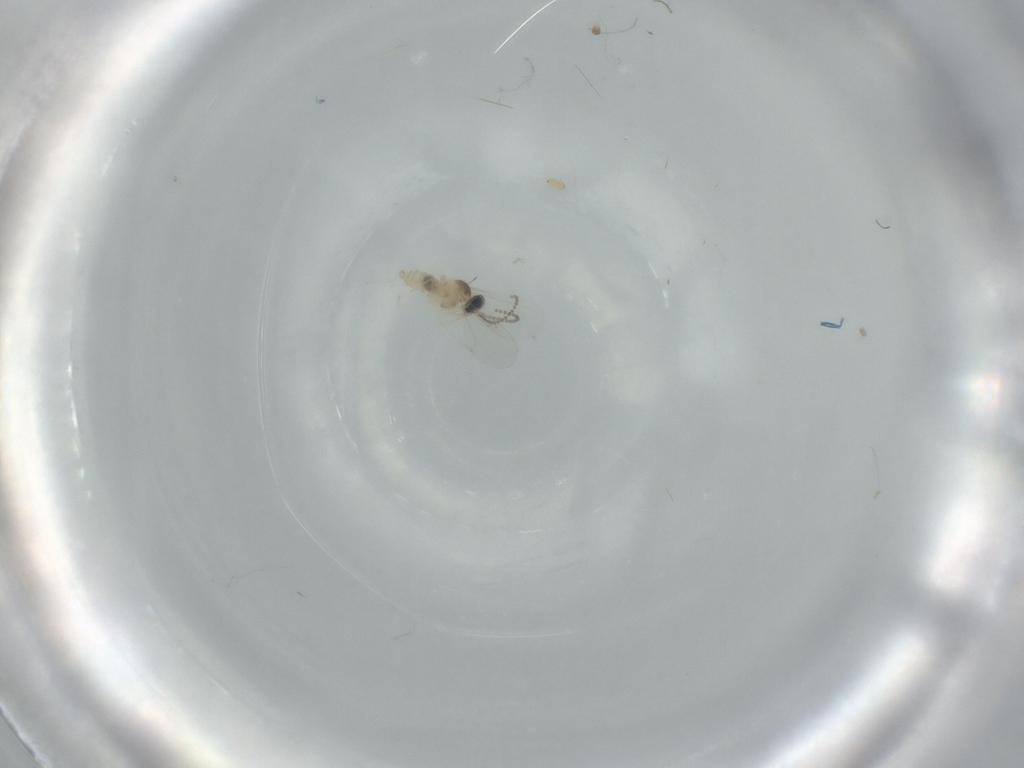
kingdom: Animalia
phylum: Arthropoda
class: Insecta
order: Diptera
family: Cecidomyiidae
